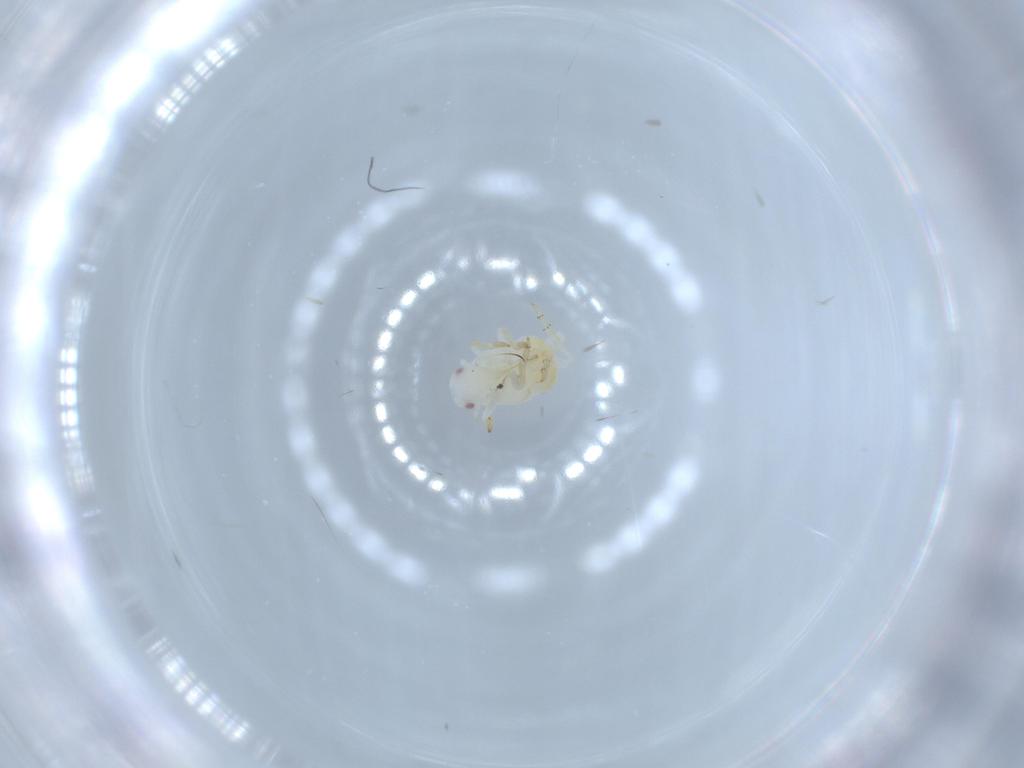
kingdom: Animalia
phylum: Arthropoda
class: Insecta
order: Hemiptera
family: Flatidae
